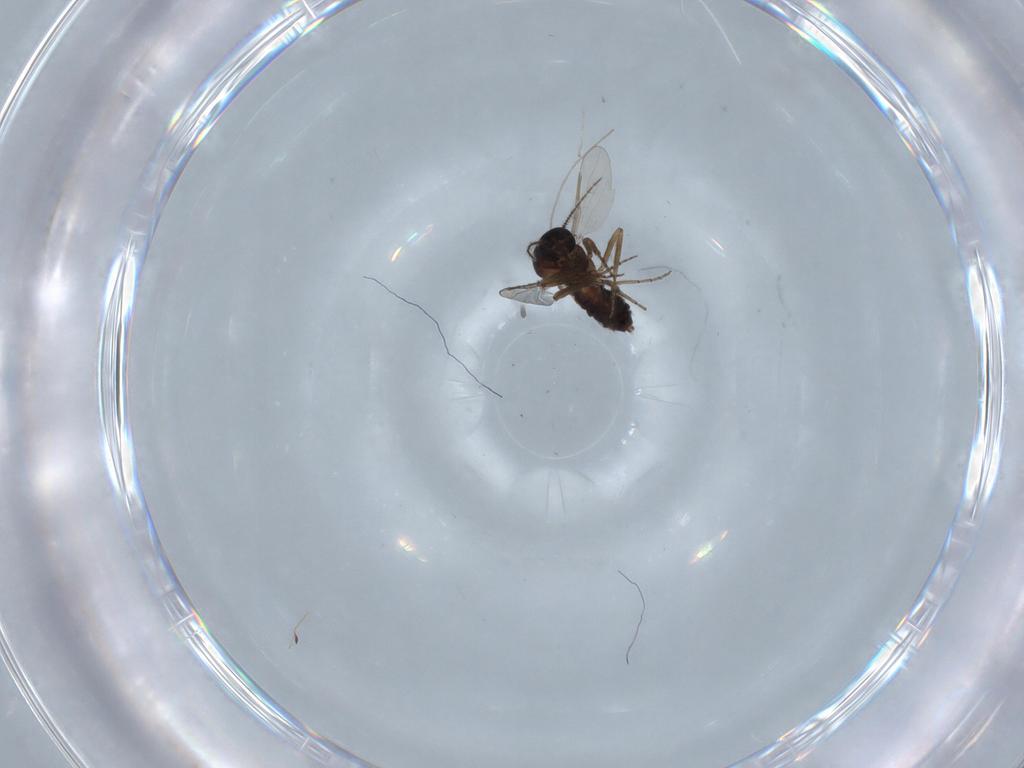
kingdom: Animalia
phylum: Arthropoda
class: Insecta
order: Diptera
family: Chironomidae
